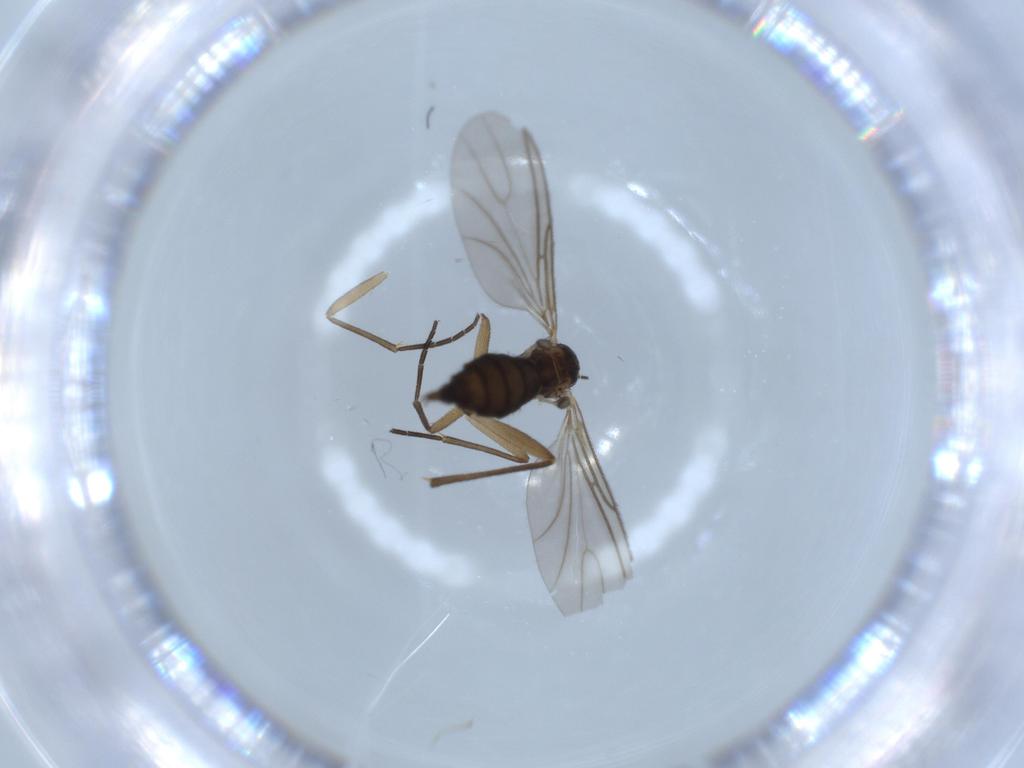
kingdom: Animalia
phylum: Arthropoda
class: Insecta
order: Diptera
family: Sciaridae
